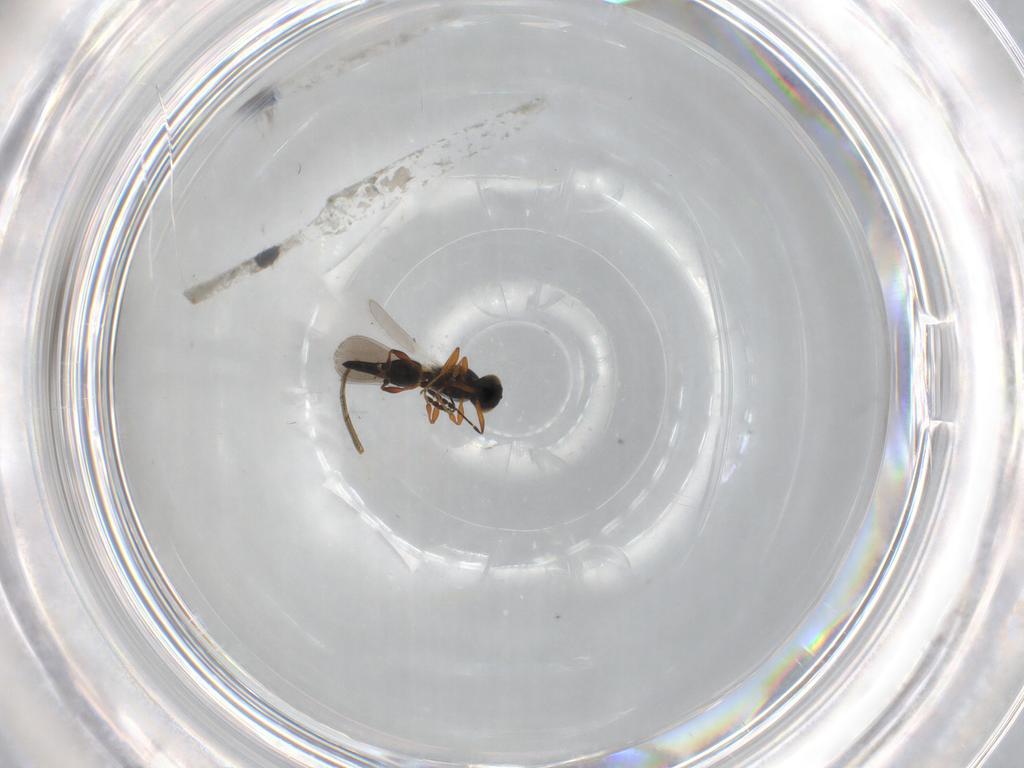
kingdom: Animalia
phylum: Arthropoda
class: Insecta
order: Hymenoptera
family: Platygastridae
